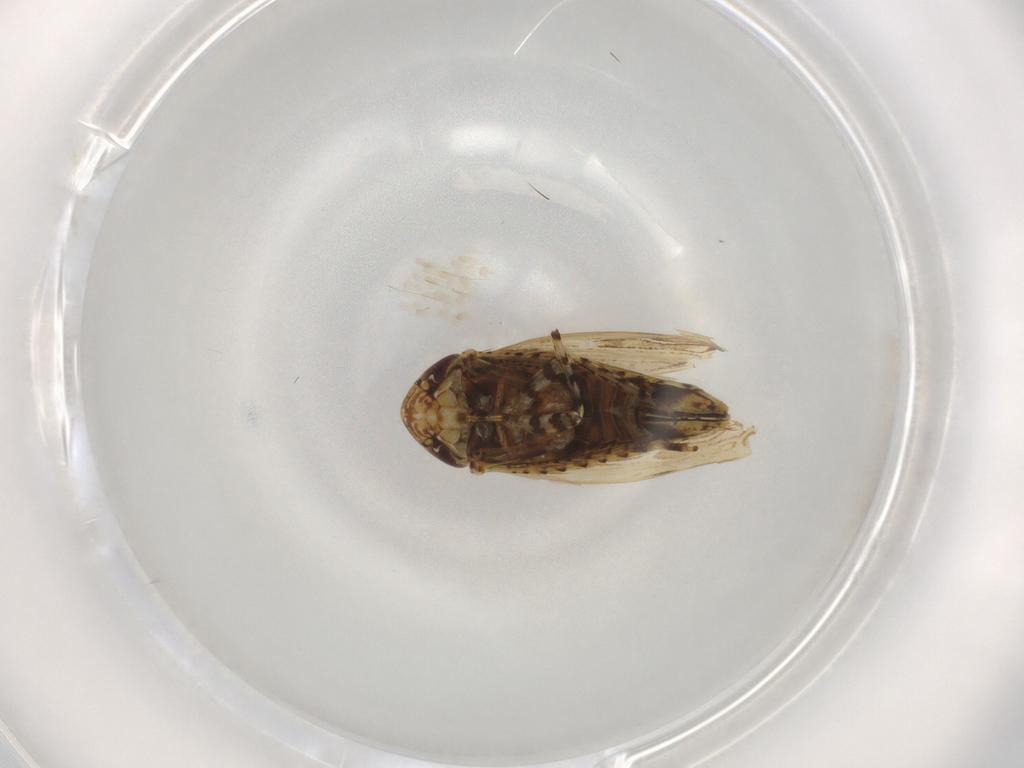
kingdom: Animalia
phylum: Arthropoda
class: Insecta
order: Hemiptera
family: Cicadellidae
